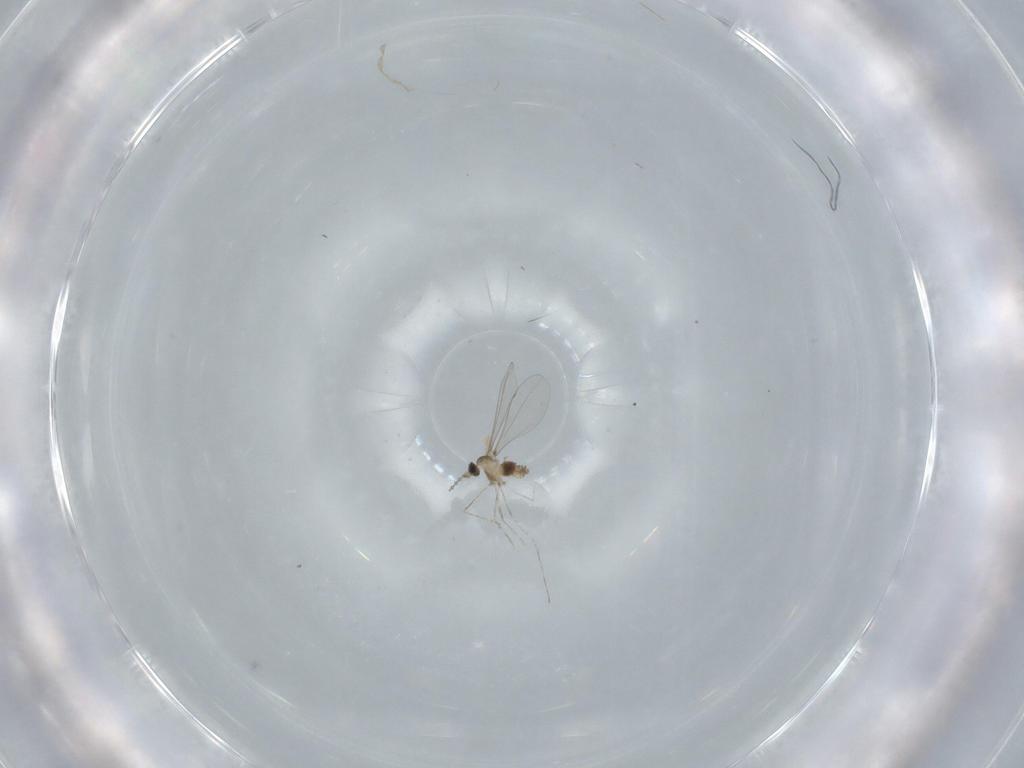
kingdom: Animalia
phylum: Arthropoda
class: Insecta
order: Diptera
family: Cecidomyiidae
